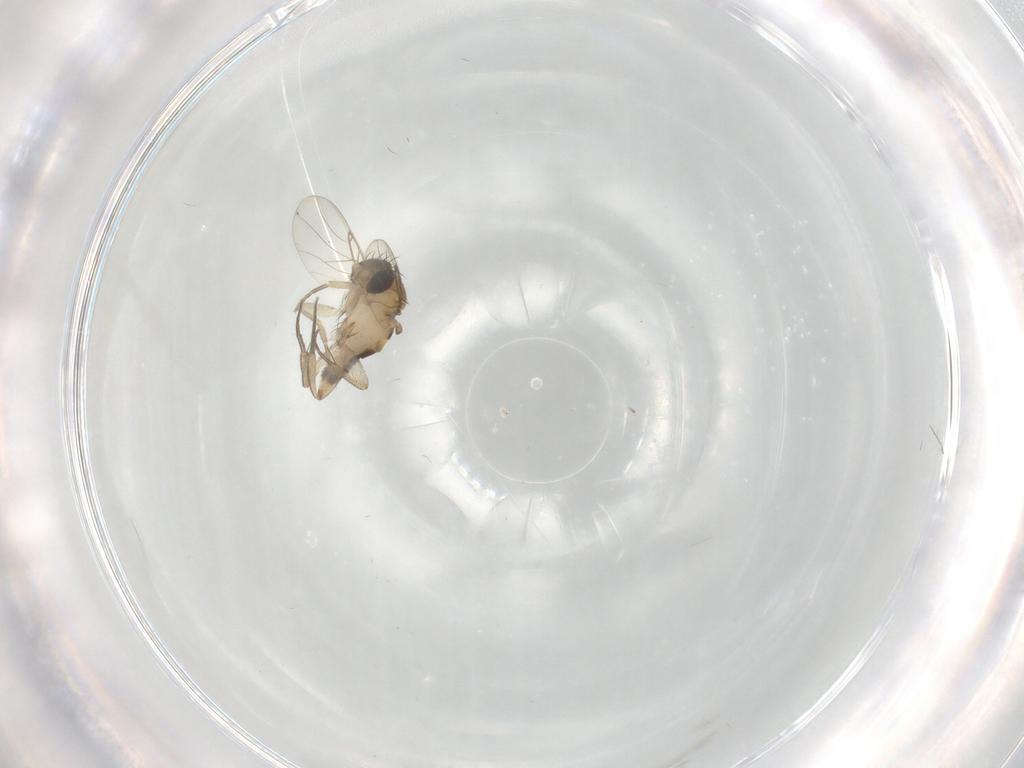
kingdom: Animalia
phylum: Arthropoda
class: Insecta
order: Diptera
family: Phoridae
